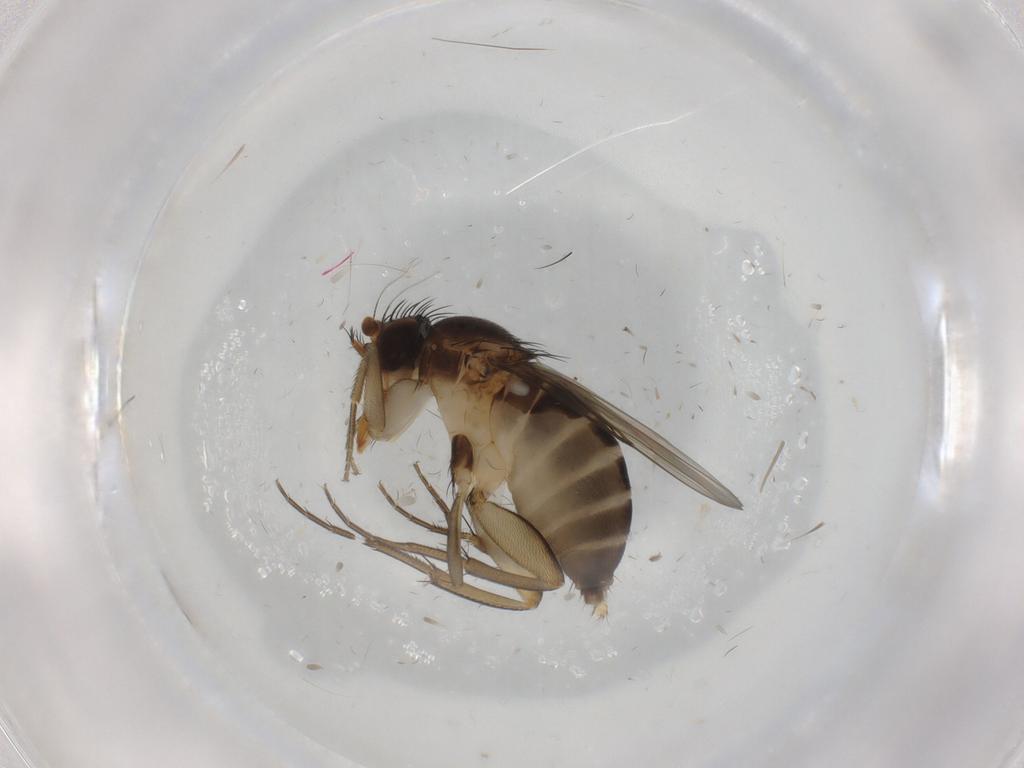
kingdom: Animalia
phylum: Arthropoda
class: Insecta
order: Diptera
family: Phoridae
